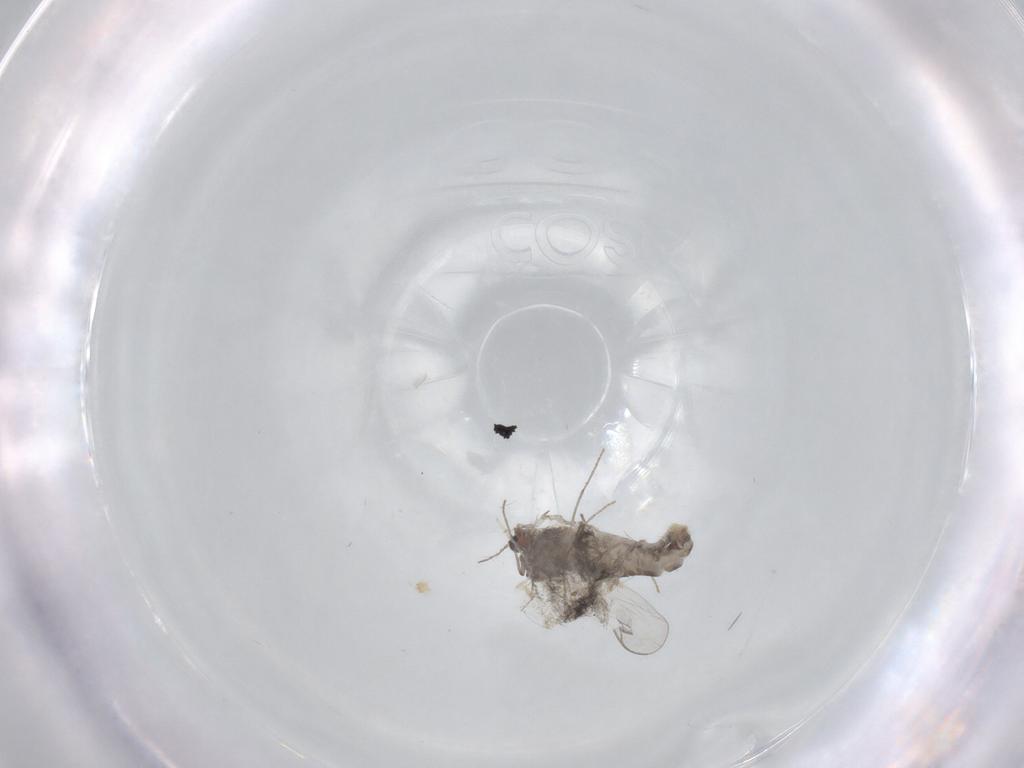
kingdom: Animalia
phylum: Arthropoda
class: Insecta
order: Diptera
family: Chironomidae
